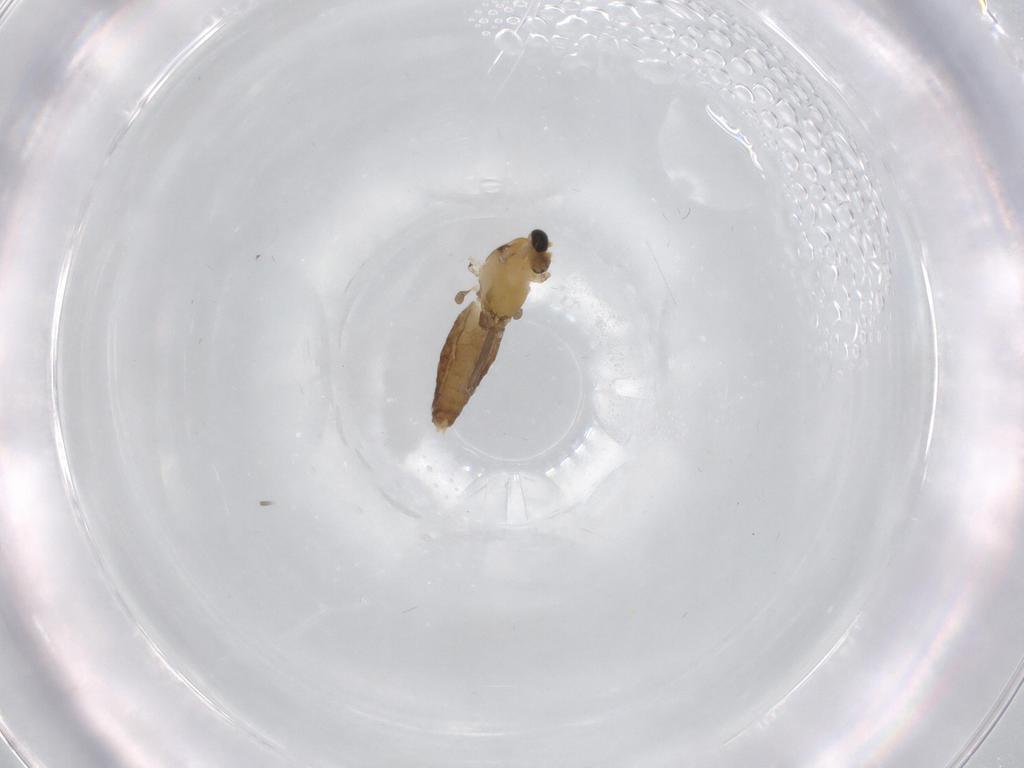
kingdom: Animalia
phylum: Arthropoda
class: Insecta
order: Diptera
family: Chironomidae
